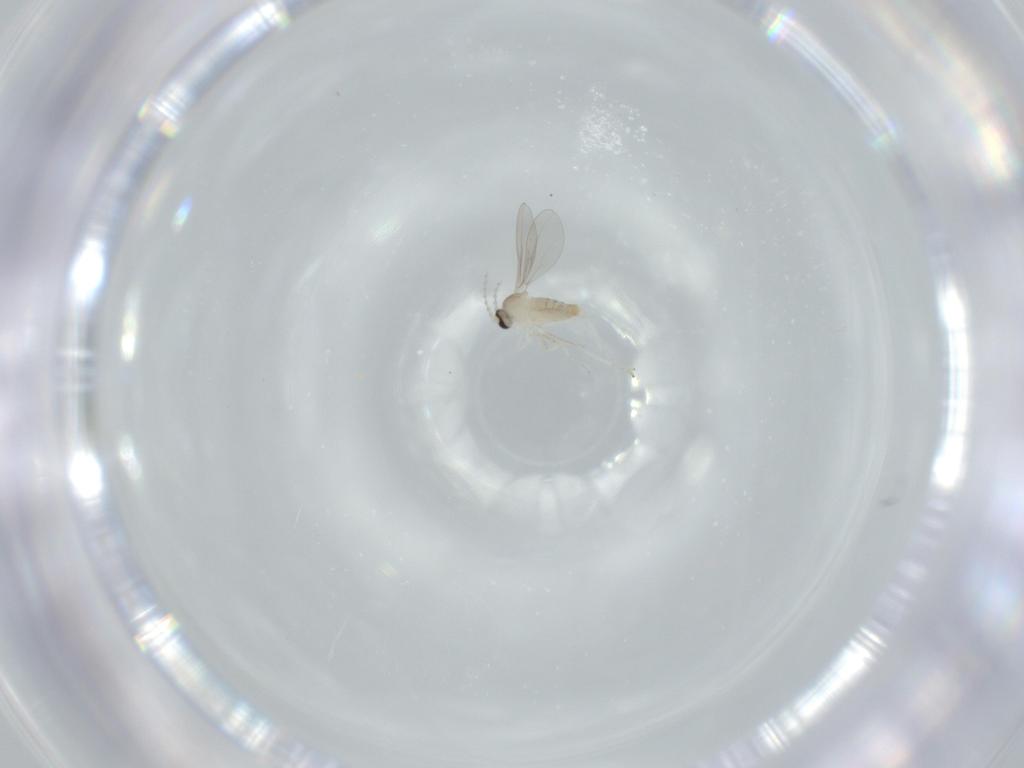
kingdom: Animalia
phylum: Arthropoda
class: Insecta
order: Diptera
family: Cecidomyiidae
